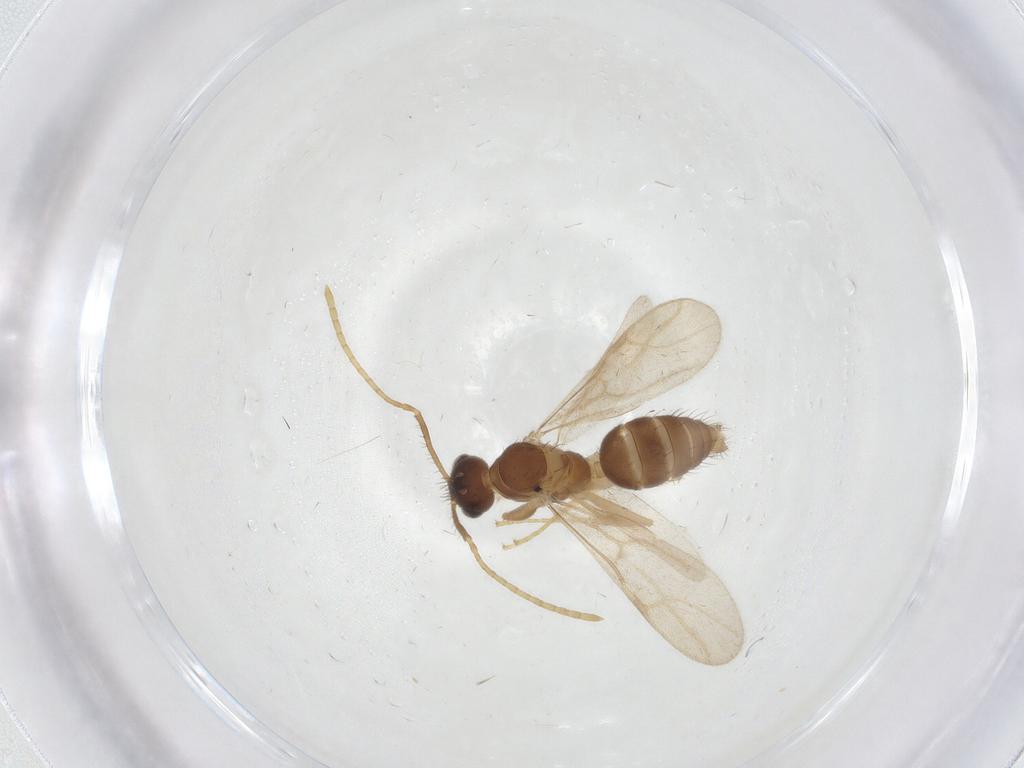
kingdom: Animalia
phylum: Arthropoda
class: Insecta
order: Hymenoptera
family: Formicidae
